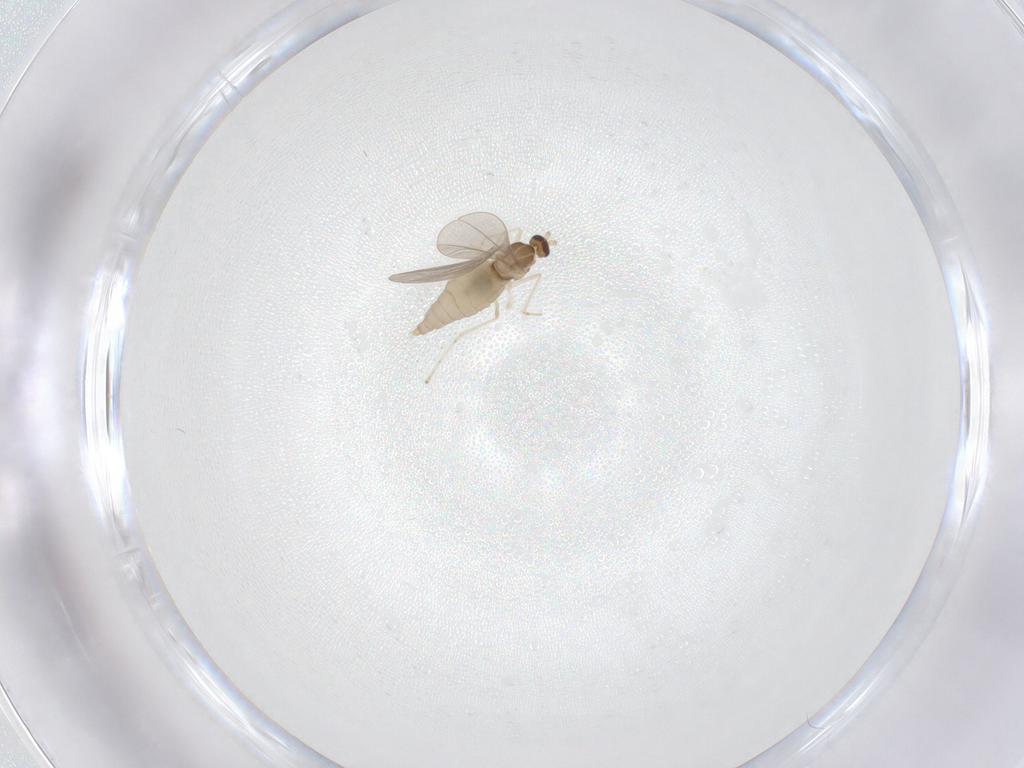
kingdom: Animalia
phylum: Arthropoda
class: Insecta
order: Diptera
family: Cecidomyiidae
